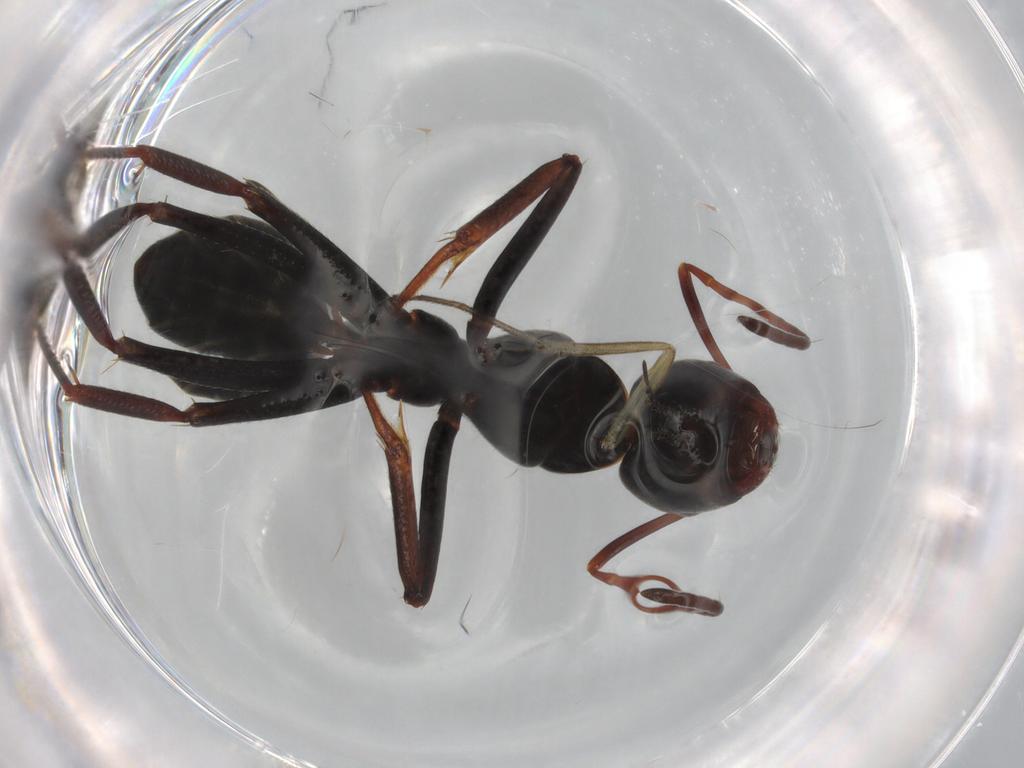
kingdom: Animalia
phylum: Arthropoda
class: Insecta
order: Hymenoptera
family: Formicidae
